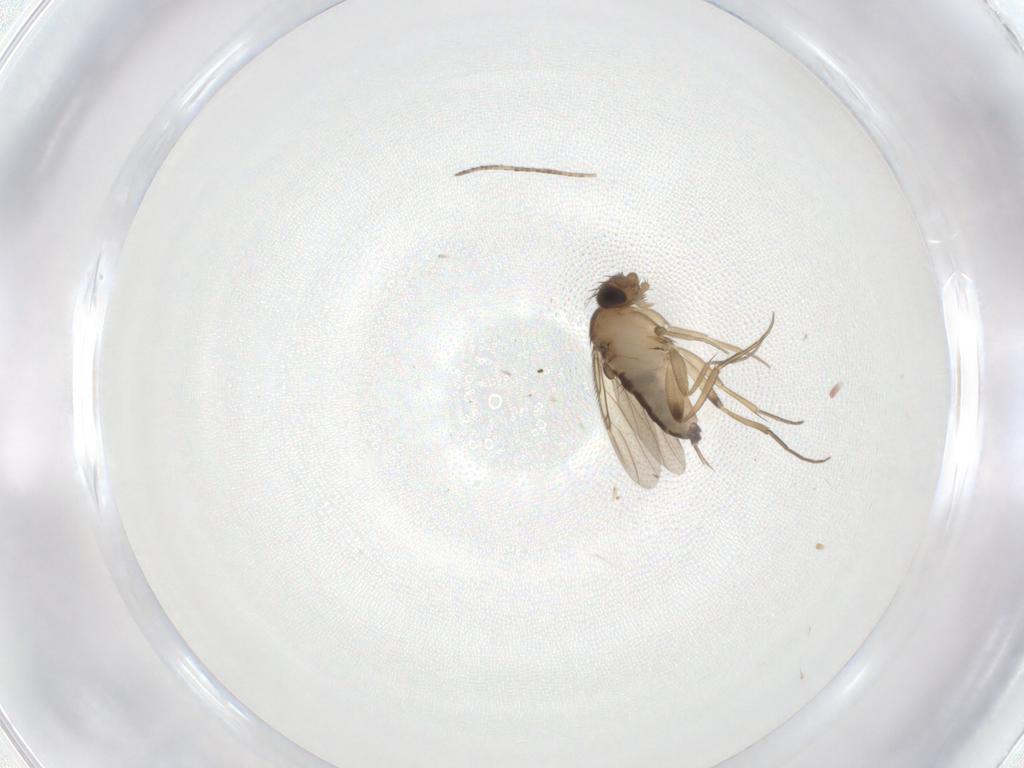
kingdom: Animalia
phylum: Arthropoda
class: Insecta
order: Diptera
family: Phoridae
